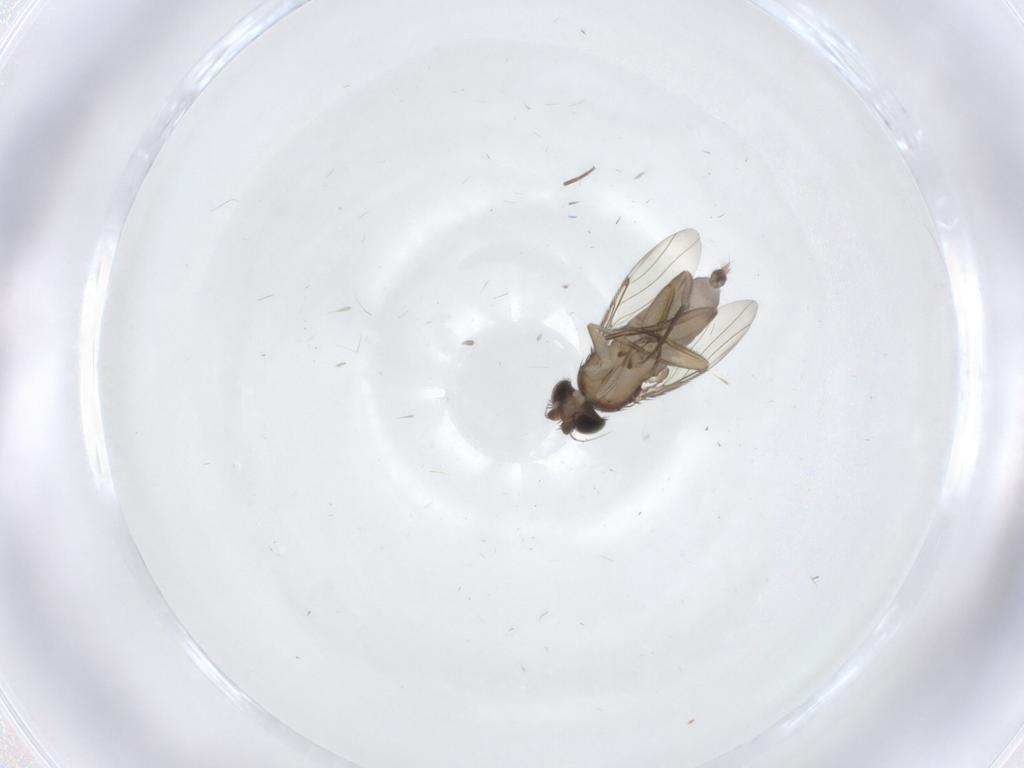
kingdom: Animalia
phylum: Arthropoda
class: Insecta
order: Diptera
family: Phoridae
